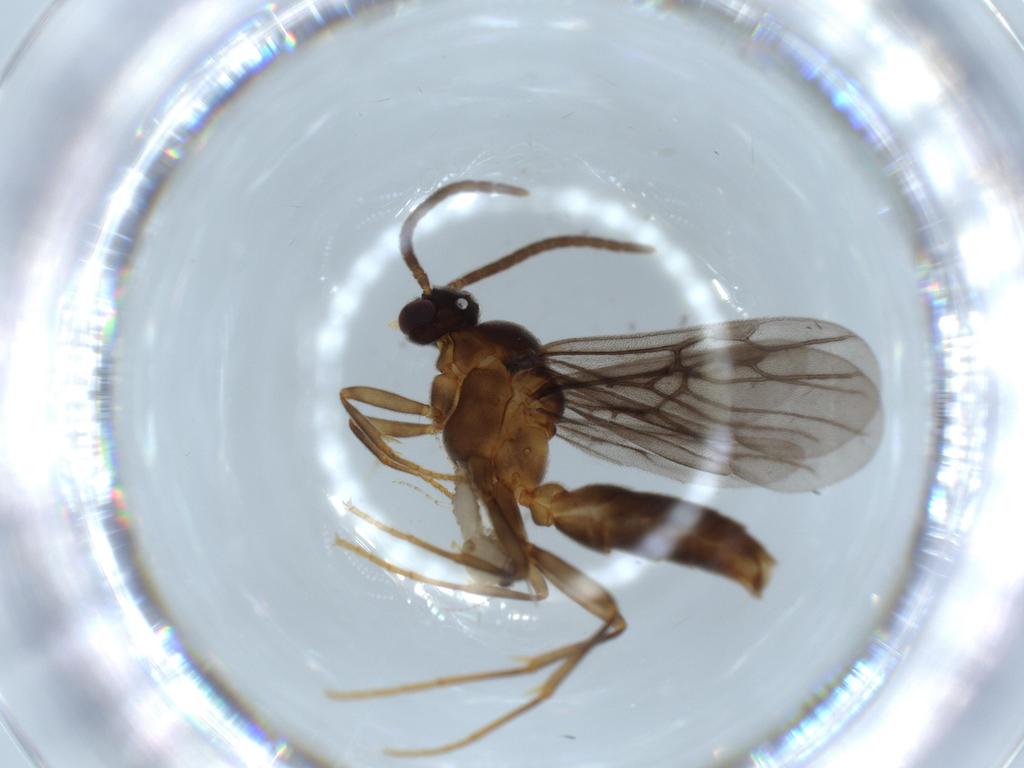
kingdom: Animalia
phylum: Arthropoda
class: Insecta
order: Hymenoptera
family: Formicidae
